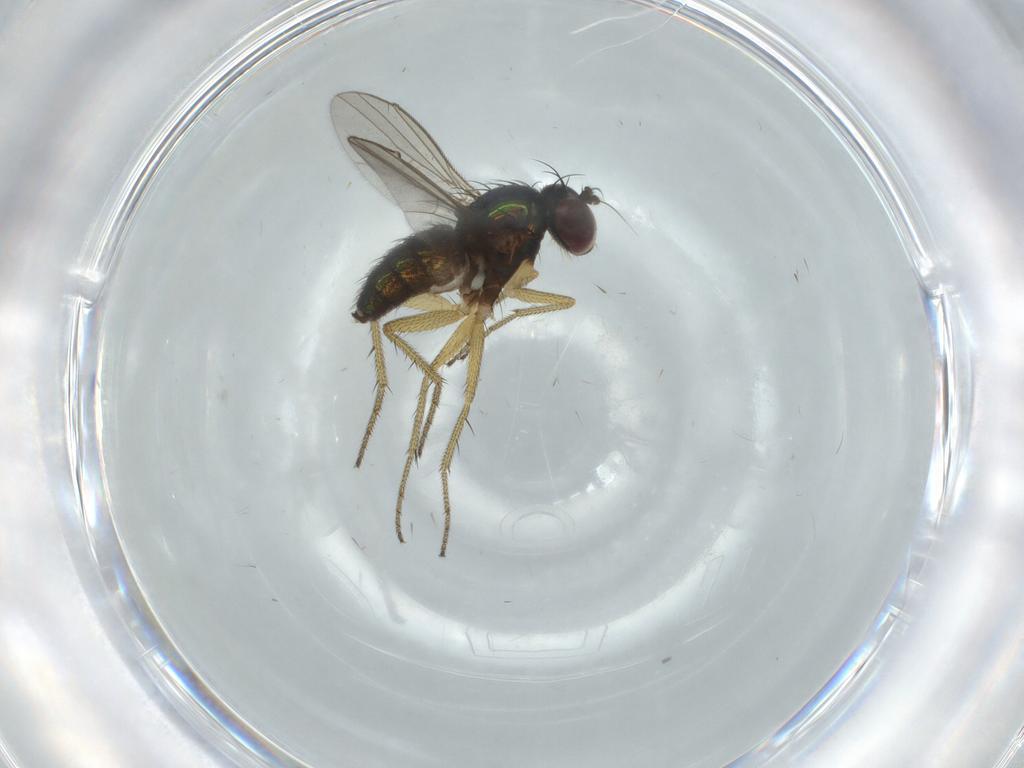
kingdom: Animalia
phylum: Arthropoda
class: Insecta
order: Diptera
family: Dolichopodidae
